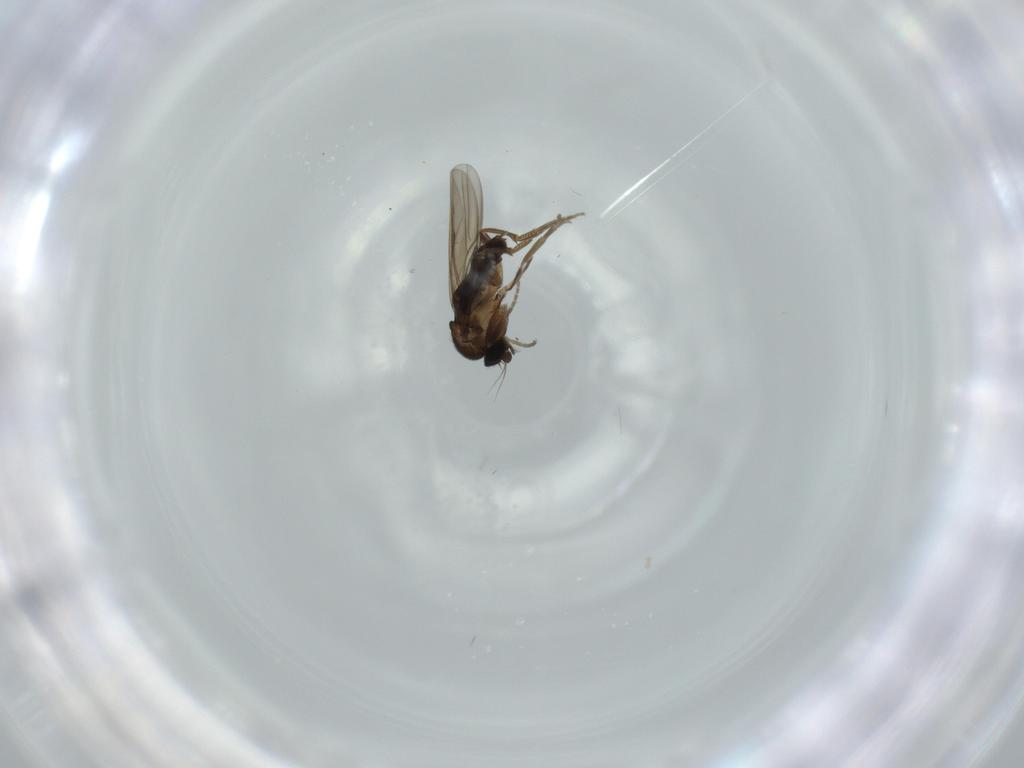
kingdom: Animalia
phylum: Arthropoda
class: Insecta
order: Diptera
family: Phoridae
